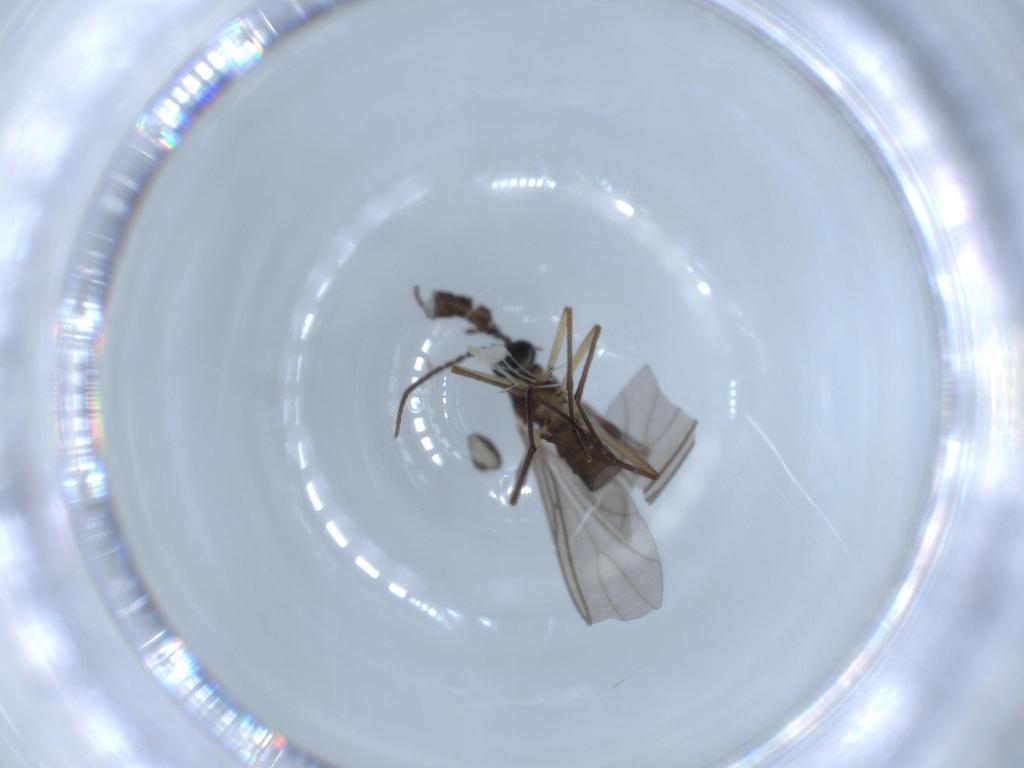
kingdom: Animalia
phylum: Arthropoda
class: Insecta
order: Diptera
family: Sciaridae
